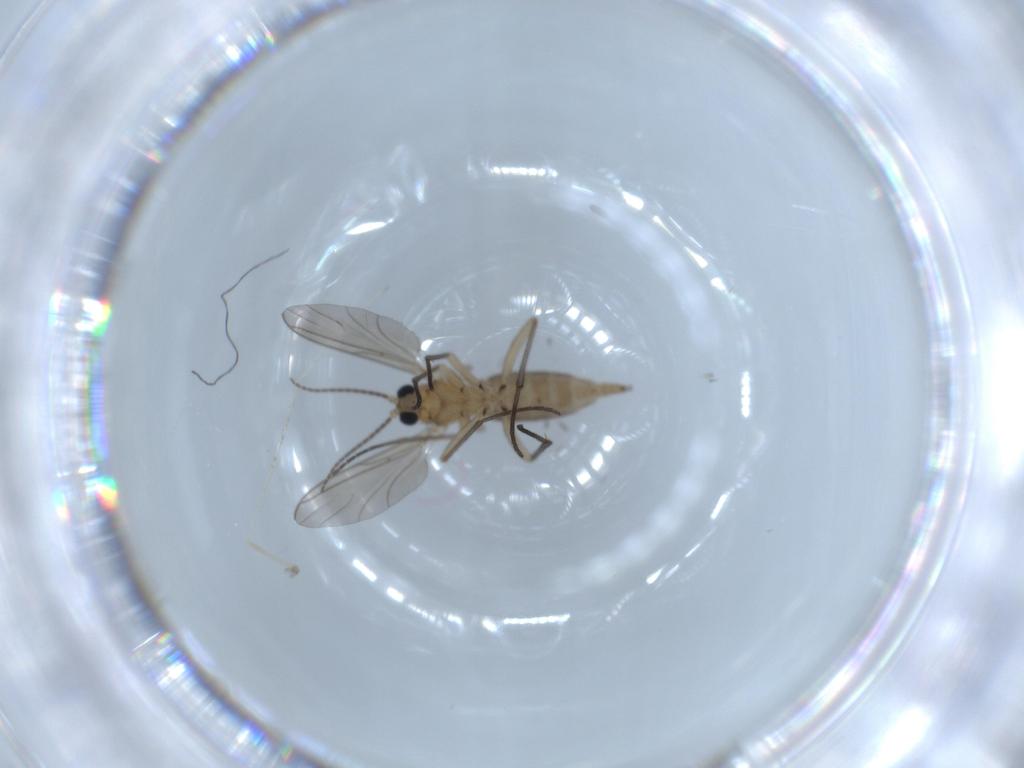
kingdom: Animalia
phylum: Arthropoda
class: Insecta
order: Diptera
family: Sciaridae
